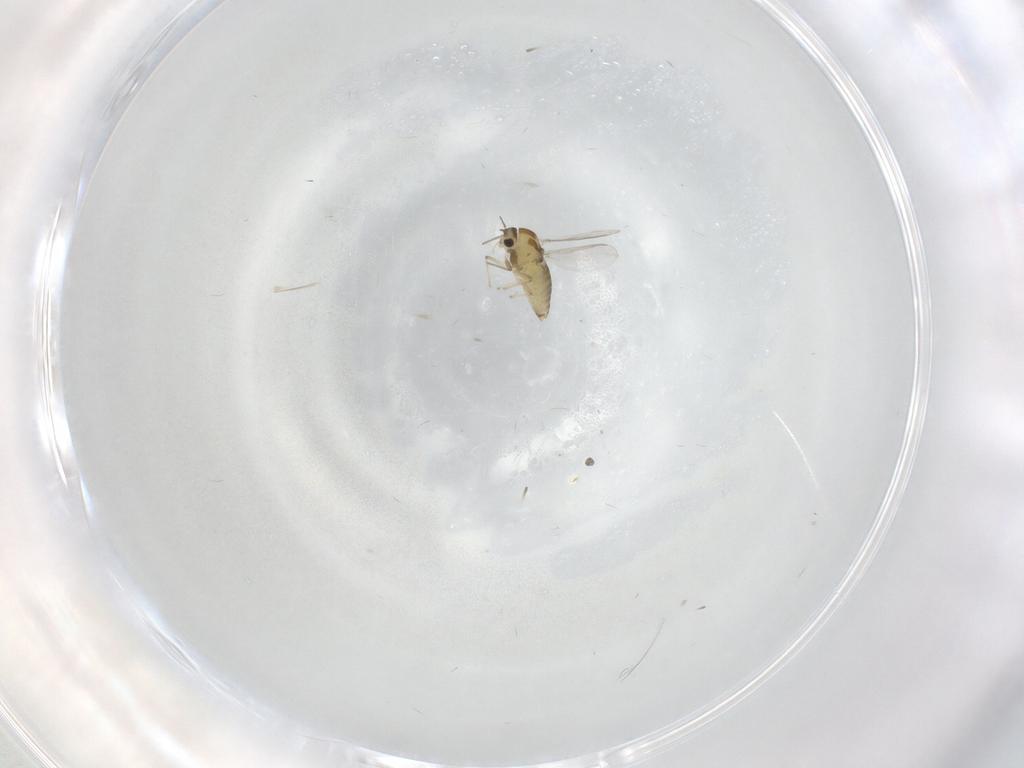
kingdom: Animalia
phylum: Arthropoda
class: Insecta
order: Diptera
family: Chironomidae
